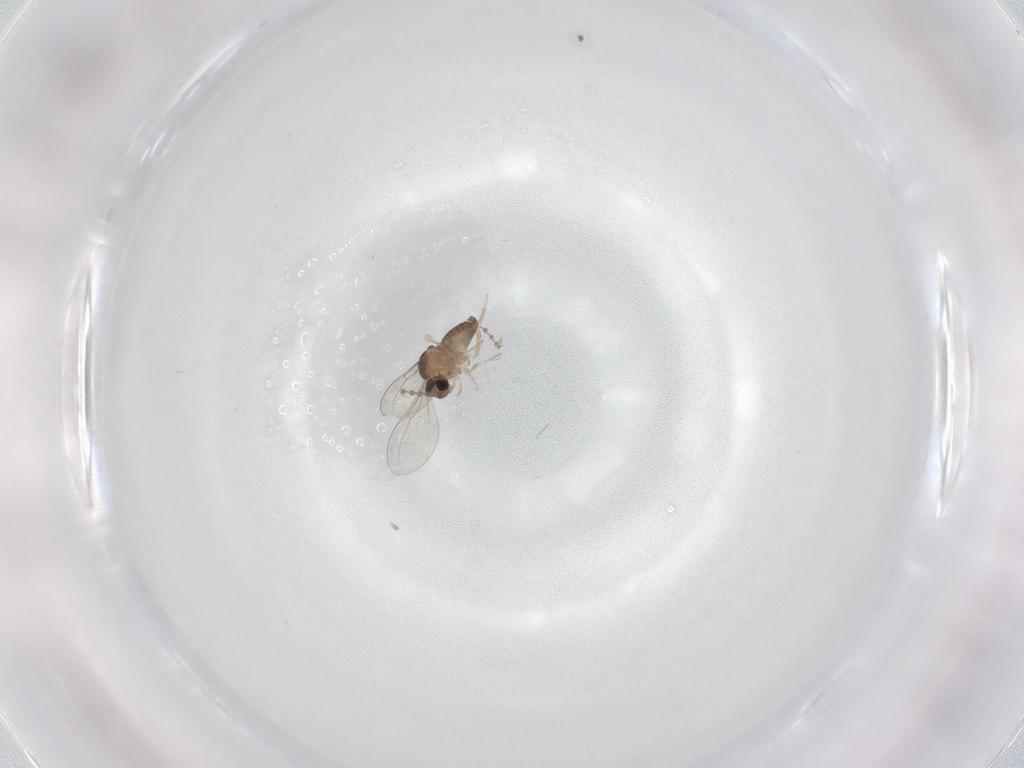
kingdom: Animalia
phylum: Arthropoda
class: Insecta
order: Diptera
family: Cecidomyiidae
